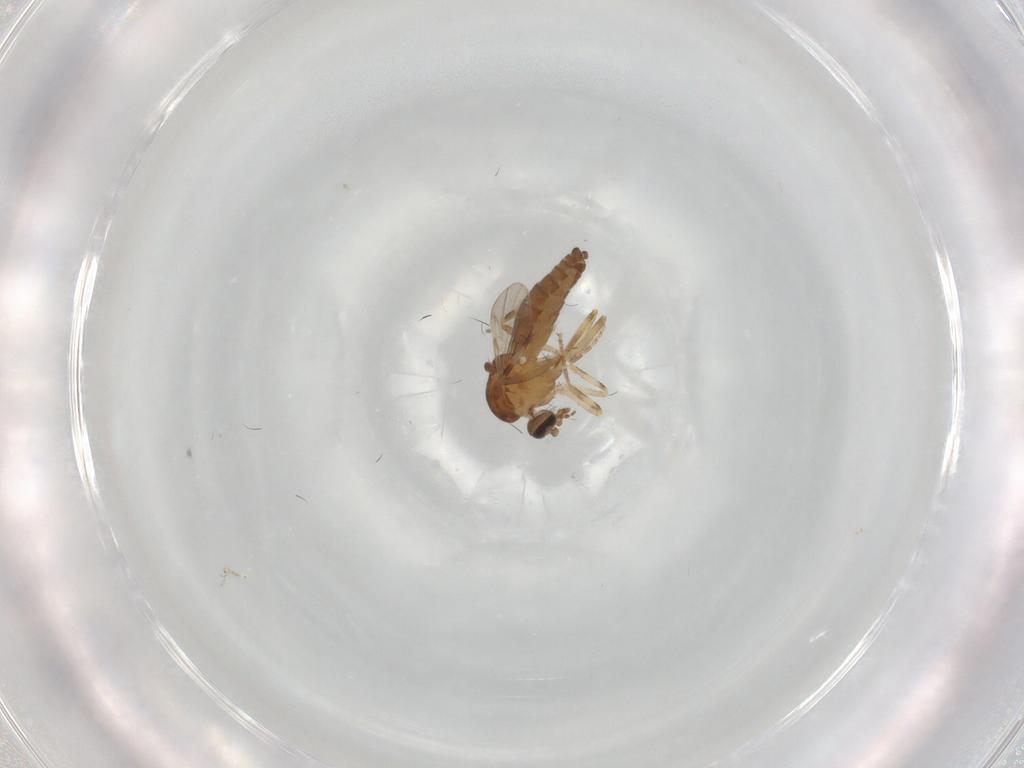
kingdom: Animalia
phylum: Arthropoda
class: Insecta
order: Diptera
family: Ceratopogonidae
